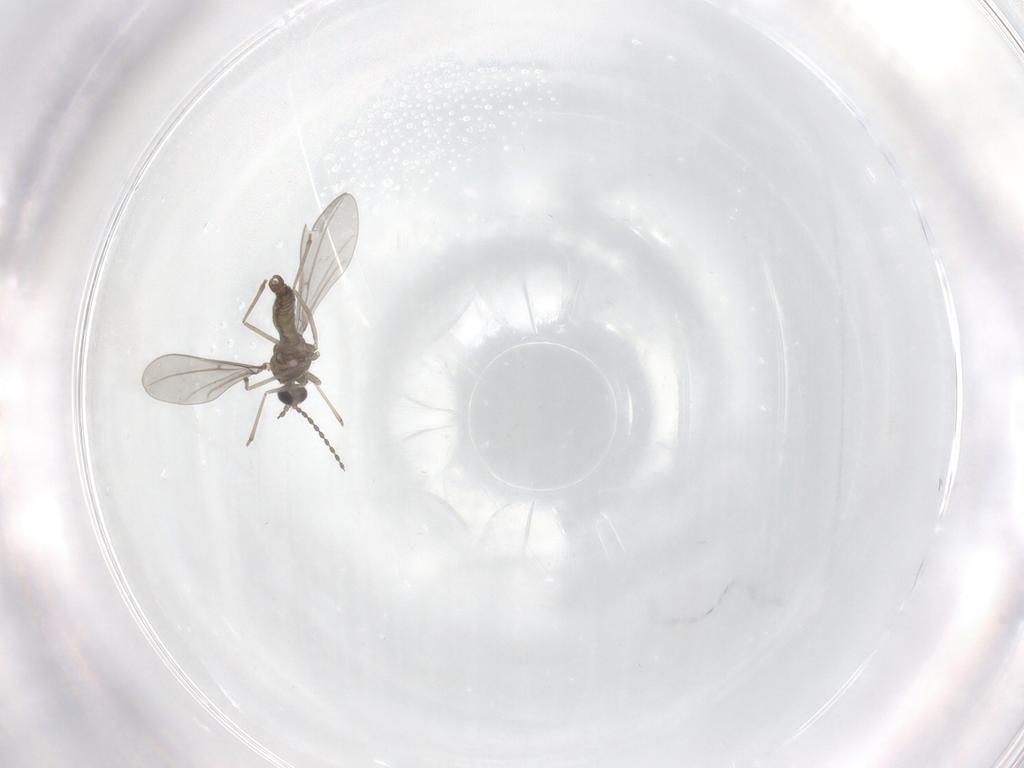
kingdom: Animalia
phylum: Arthropoda
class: Insecta
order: Diptera
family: Cecidomyiidae
